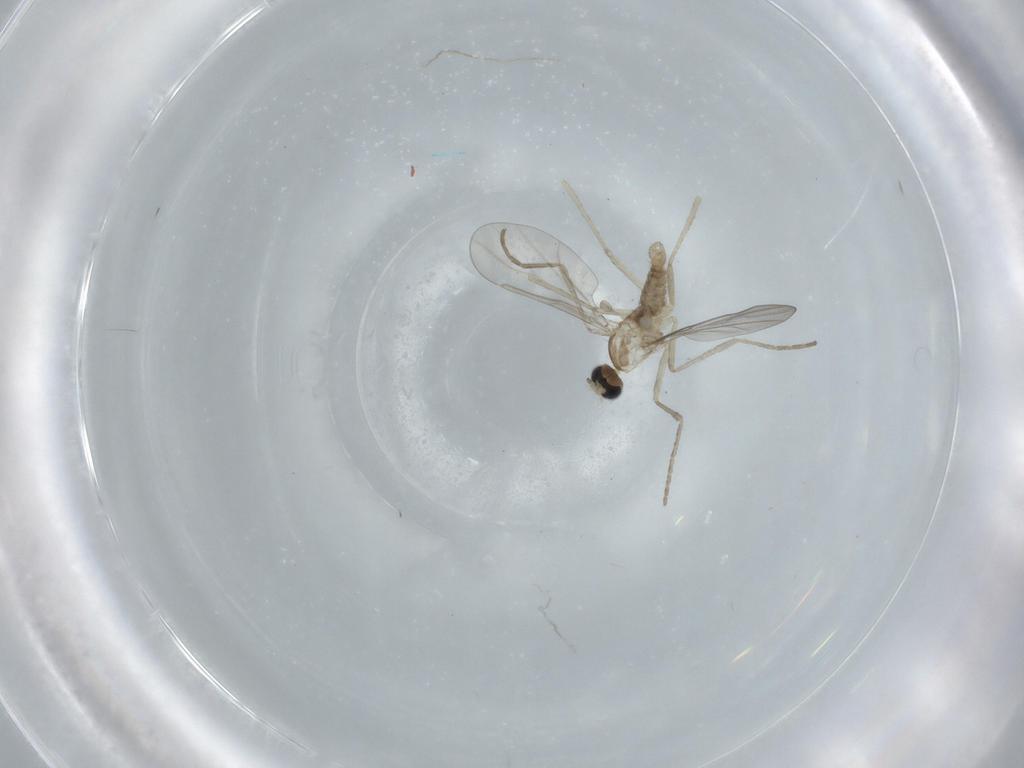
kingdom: Animalia
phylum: Arthropoda
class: Insecta
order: Diptera
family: Cecidomyiidae
